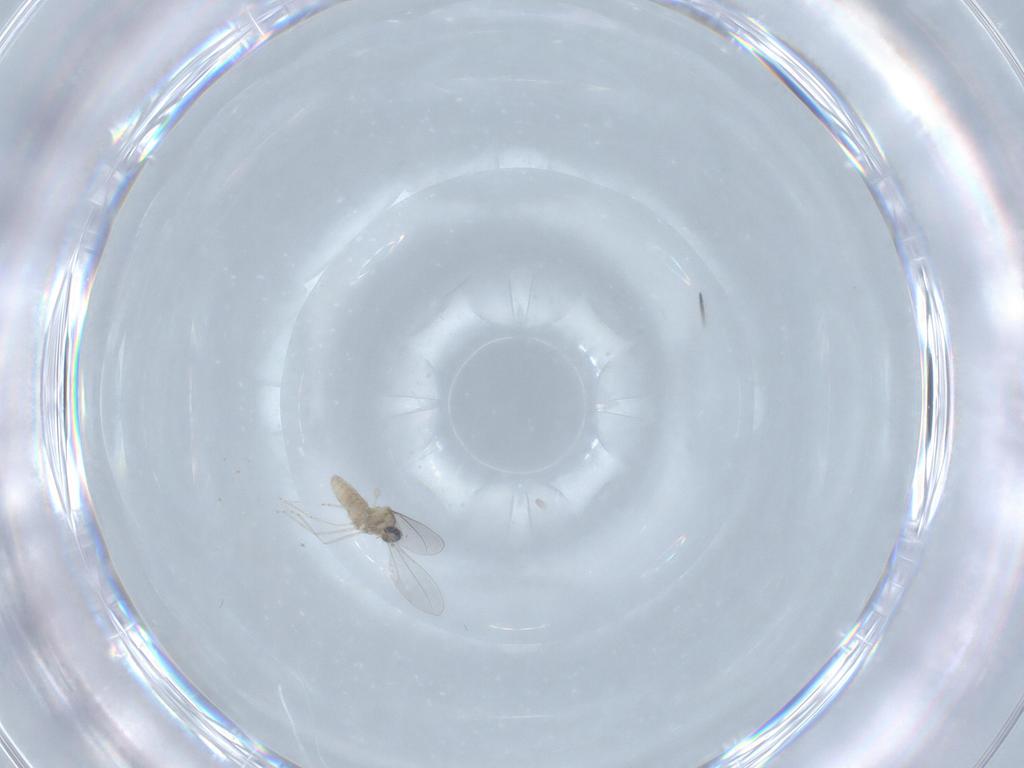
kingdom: Animalia
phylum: Arthropoda
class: Insecta
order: Diptera
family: Cecidomyiidae
